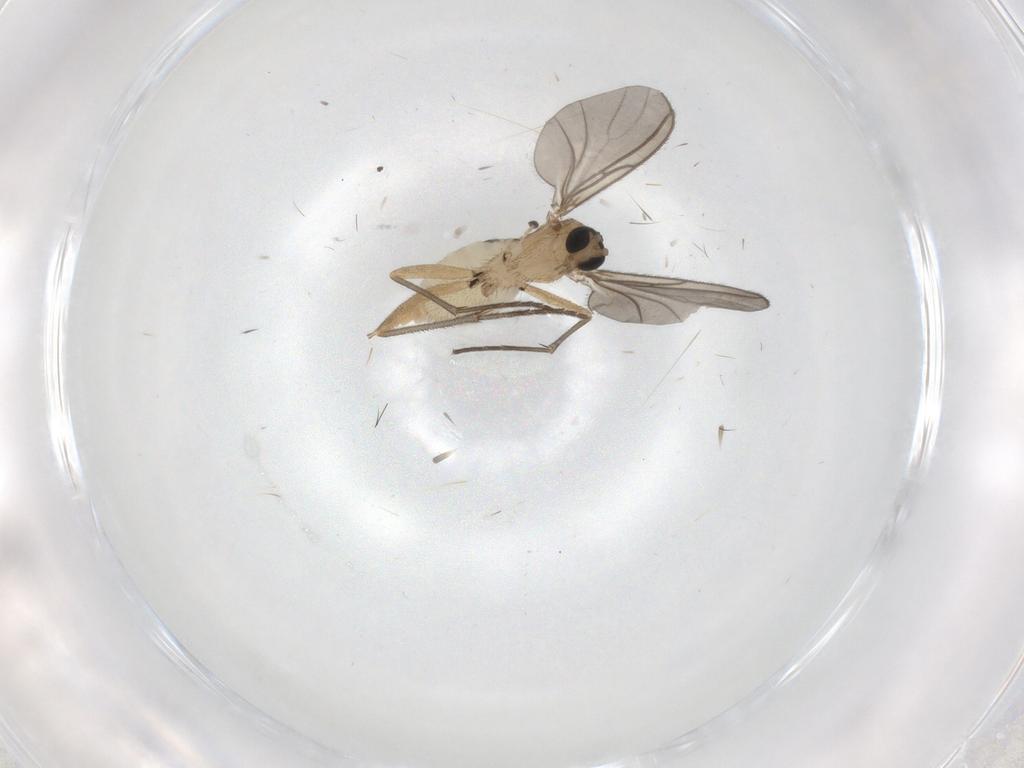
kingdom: Animalia
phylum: Arthropoda
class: Insecta
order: Diptera
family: Sciaridae
